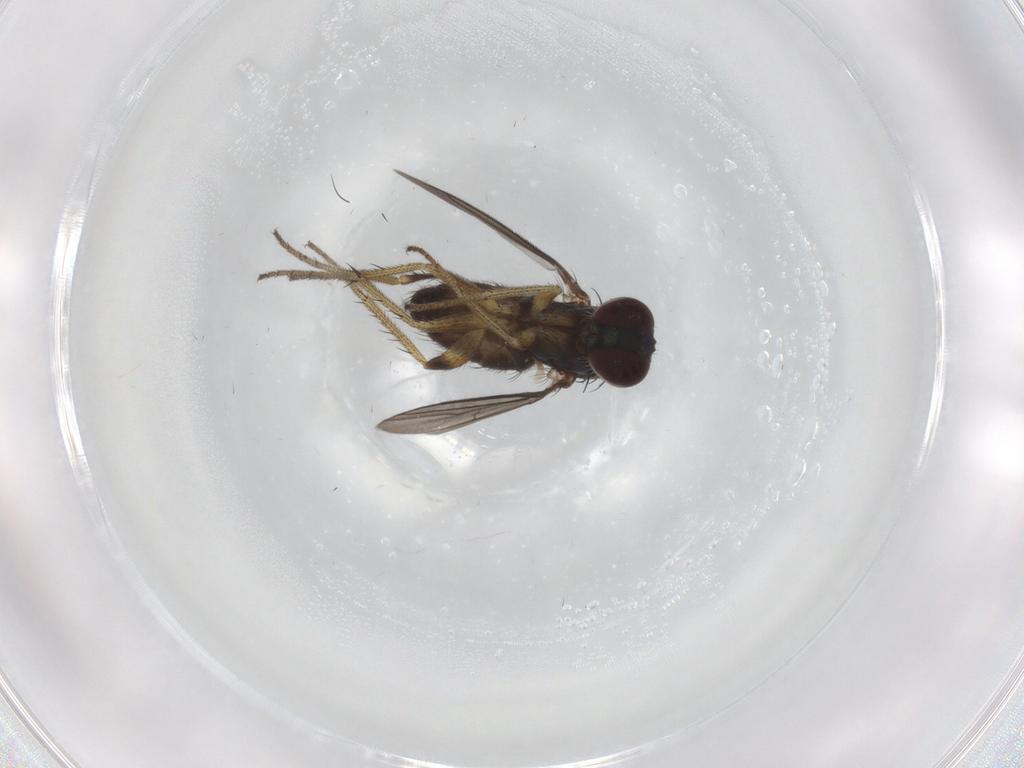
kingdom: Animalia
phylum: Arthropoda
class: Insecta
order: Diptera
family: Dolichopodidae
